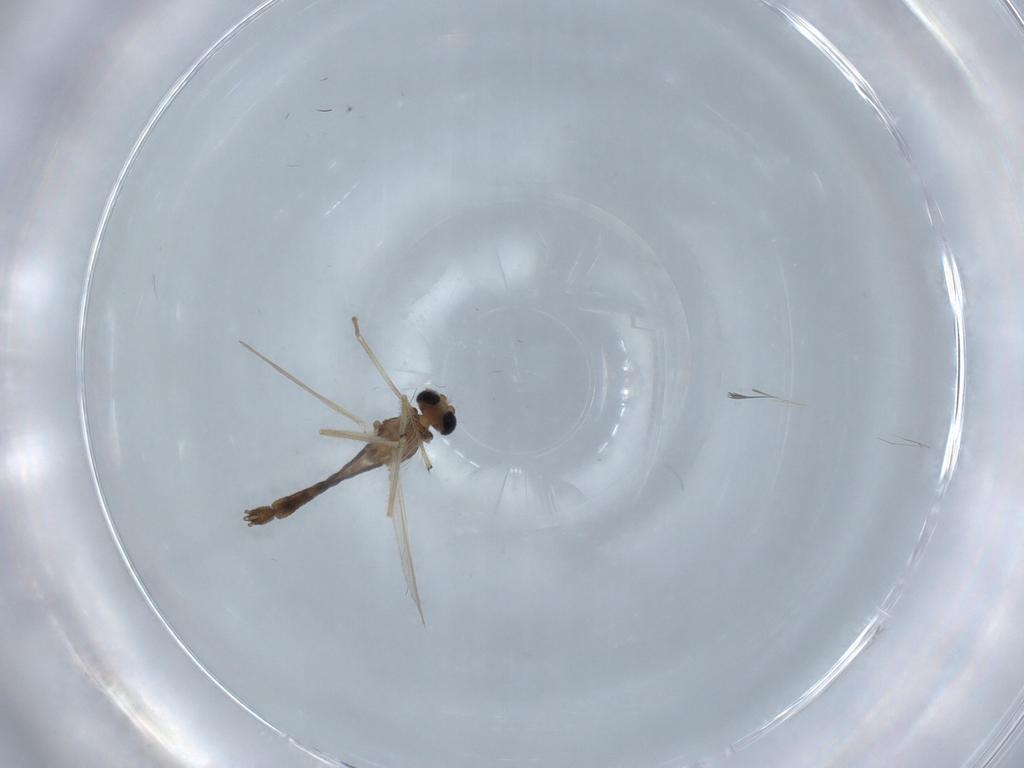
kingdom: Animalia
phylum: Arthropoda
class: Insecta
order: Diptera
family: Chironomidae
